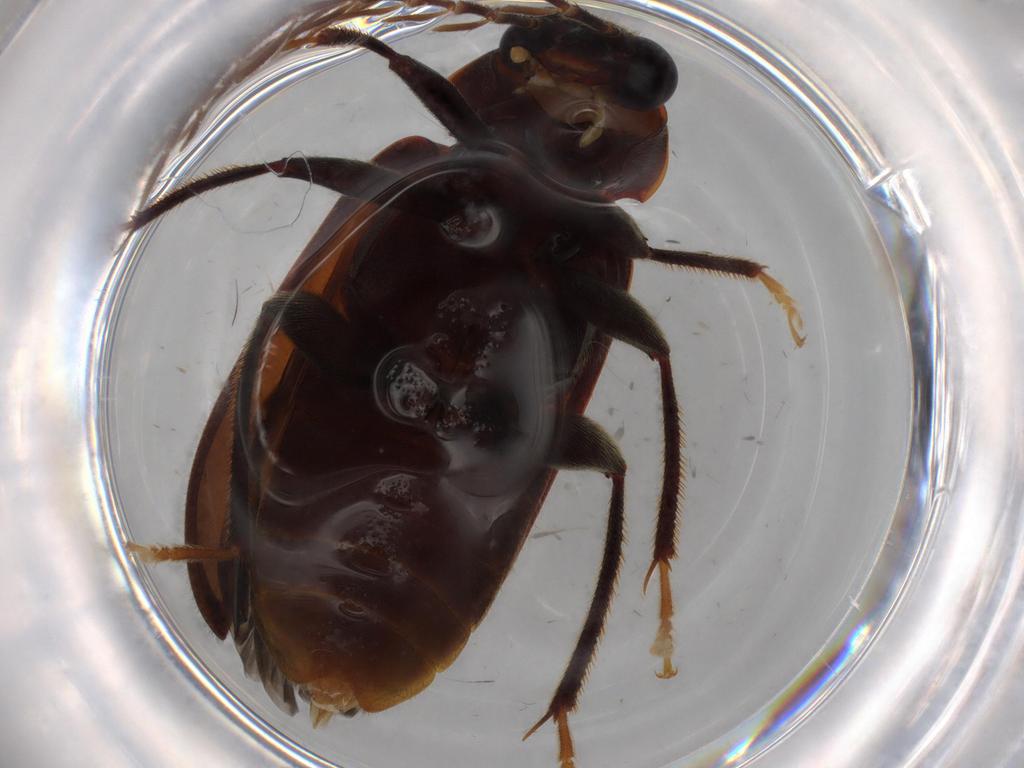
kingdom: Animalia
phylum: Arthropoda
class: Insecta
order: Coleoptera
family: Ptilodactylidae
